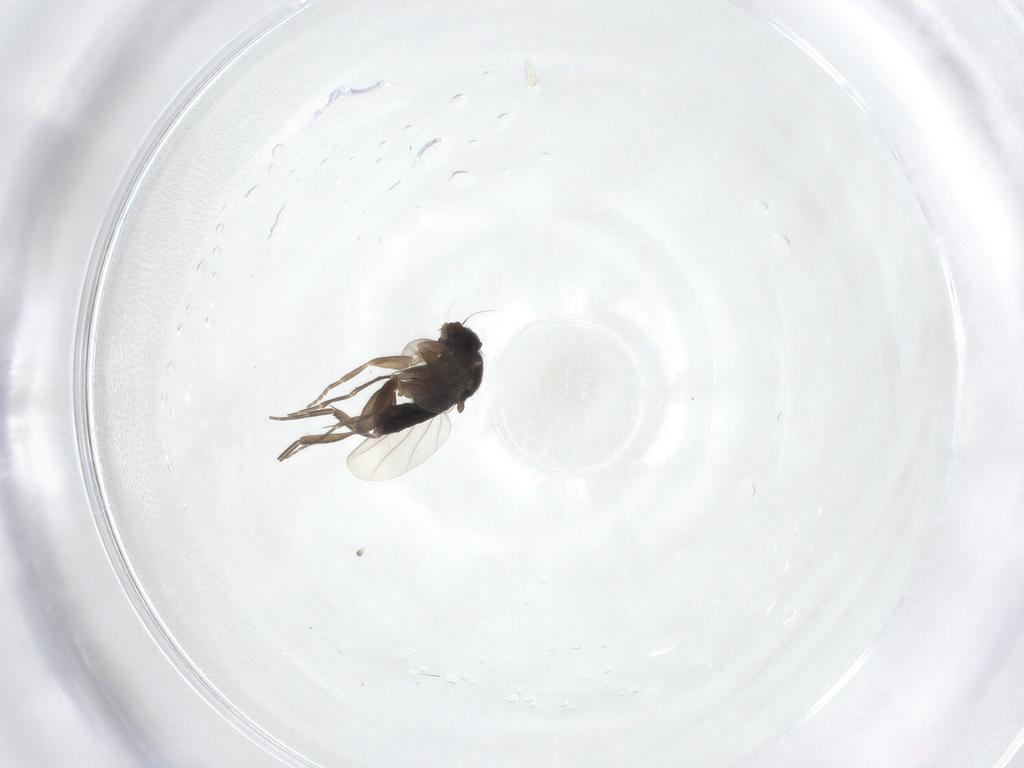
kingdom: Animalia
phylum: Arthropoda
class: Insecta
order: Diptera
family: Phoridae
